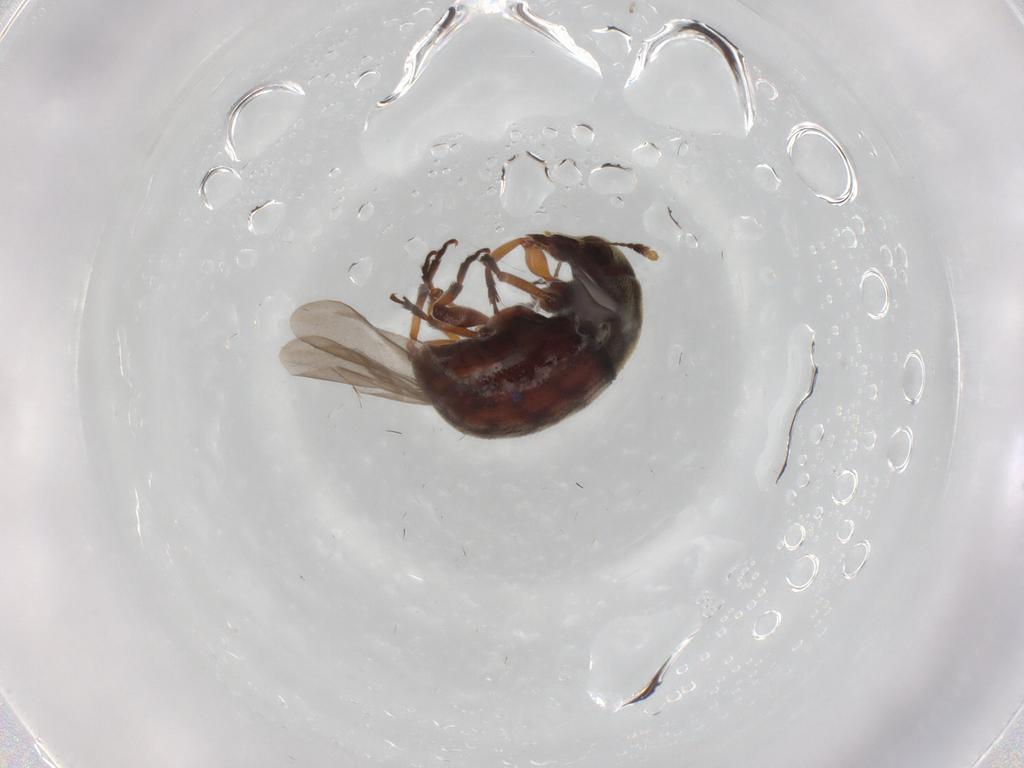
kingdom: Animalia
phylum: Arthropoda
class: Insecta
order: Coleoptera
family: Anthribidae
